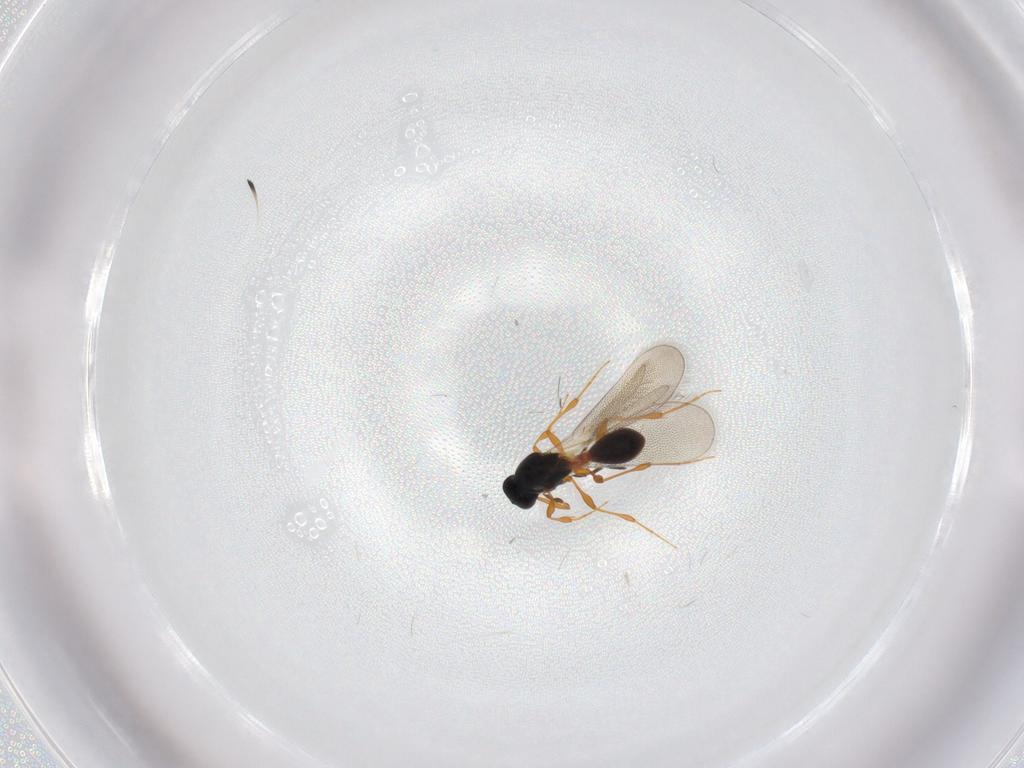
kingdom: Animalia
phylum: Arthropoda
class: Insecta
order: Hymenoptera
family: Platygastridae
